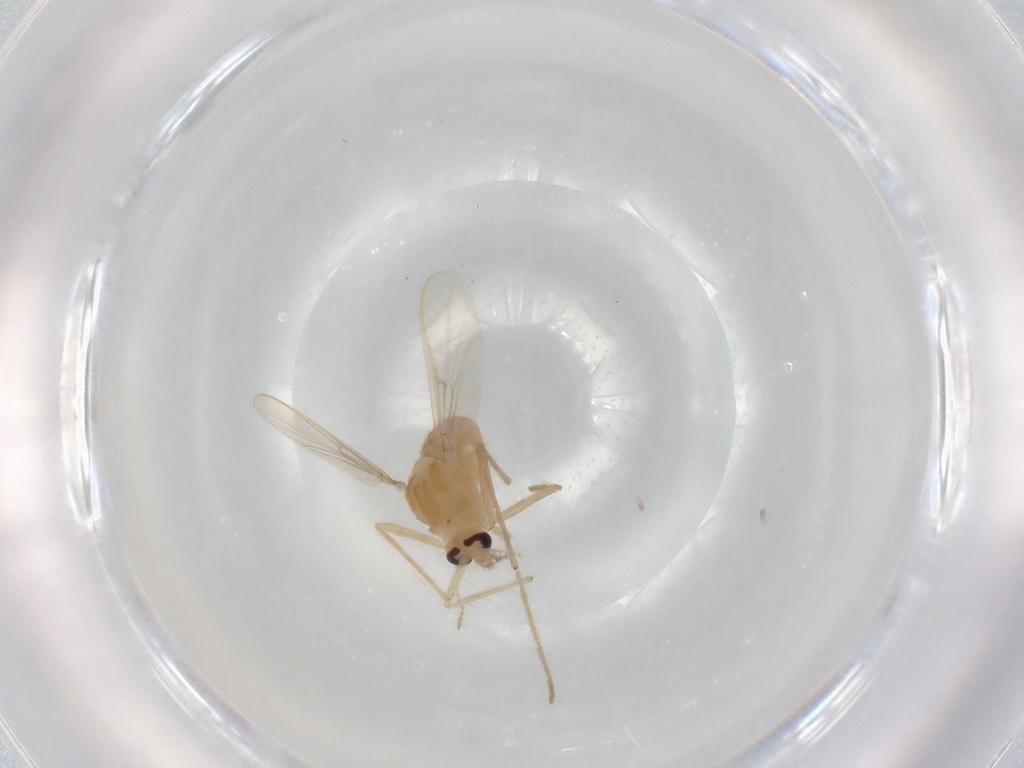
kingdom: Animalia
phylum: Arthropoda
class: Insecta
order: Diptera
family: Chironomidae
